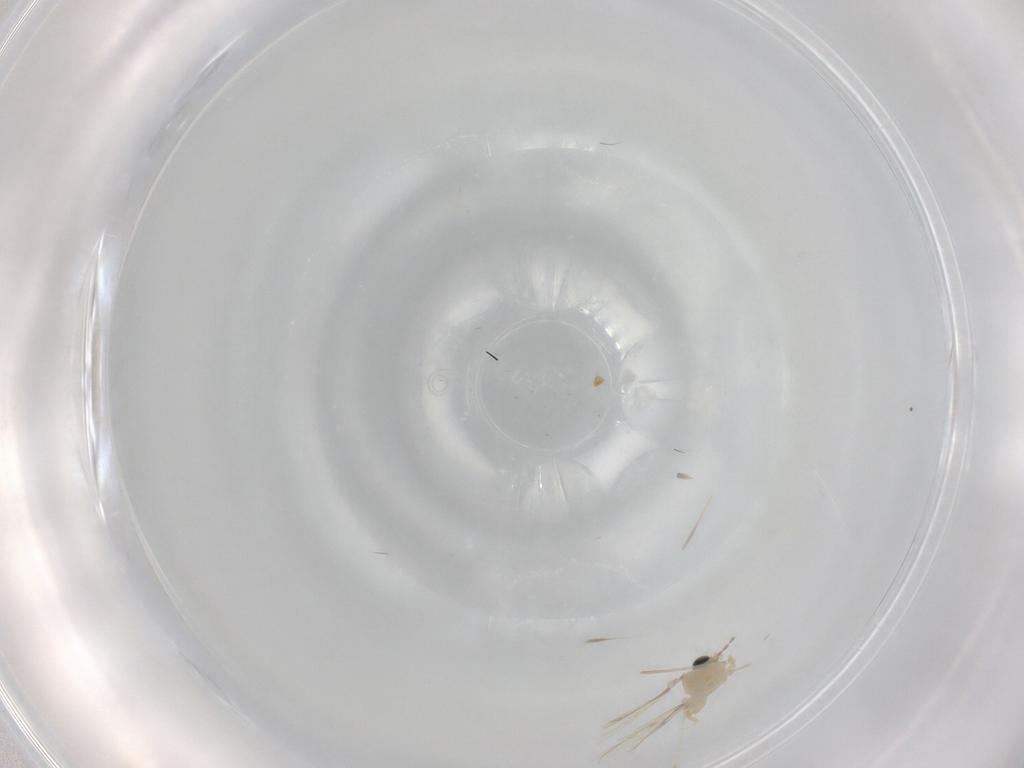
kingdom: Animalia
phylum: Arthropoda
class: Insecta
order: Diptera
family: Cecidomyiidae
